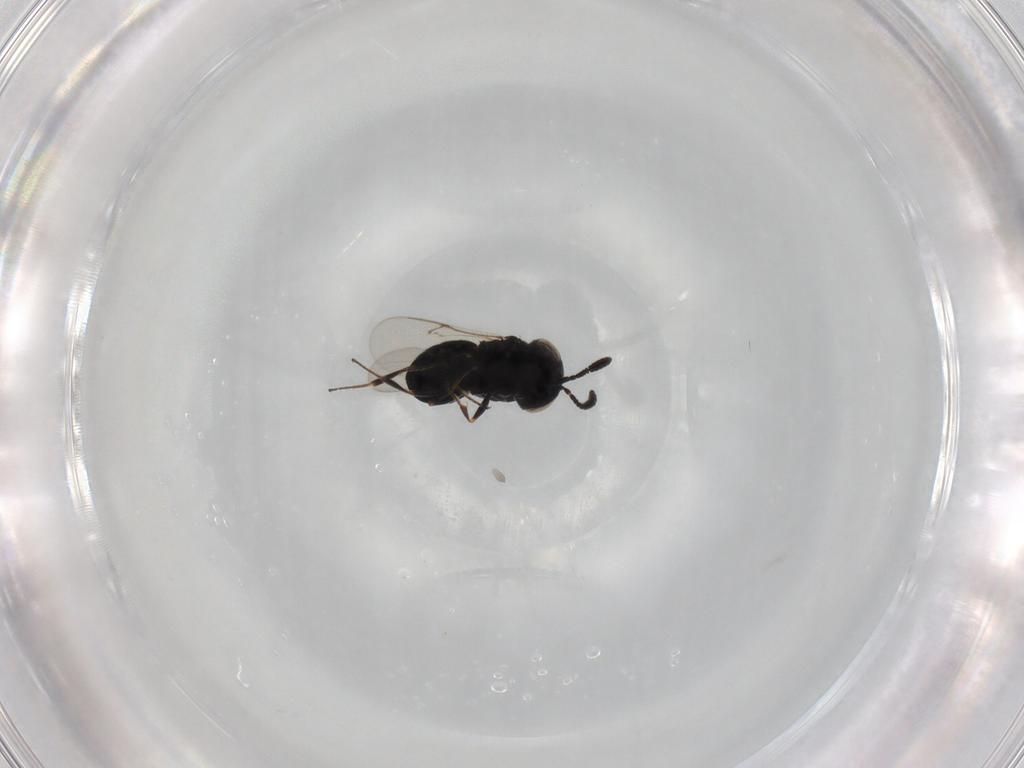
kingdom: Animalia
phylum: Arthropoda
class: Insecta
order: Hymenoptera
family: Scelionidae
